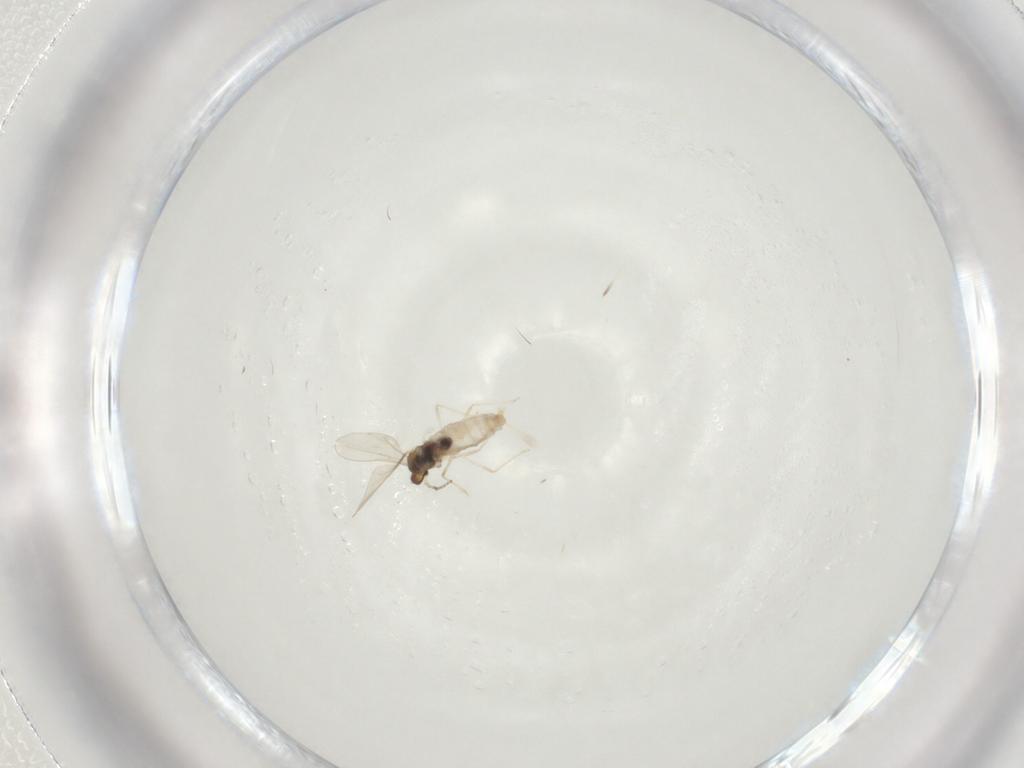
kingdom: Animalia
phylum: Arthropoda
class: Insecta
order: Diptera
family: Cecidomyiidae
